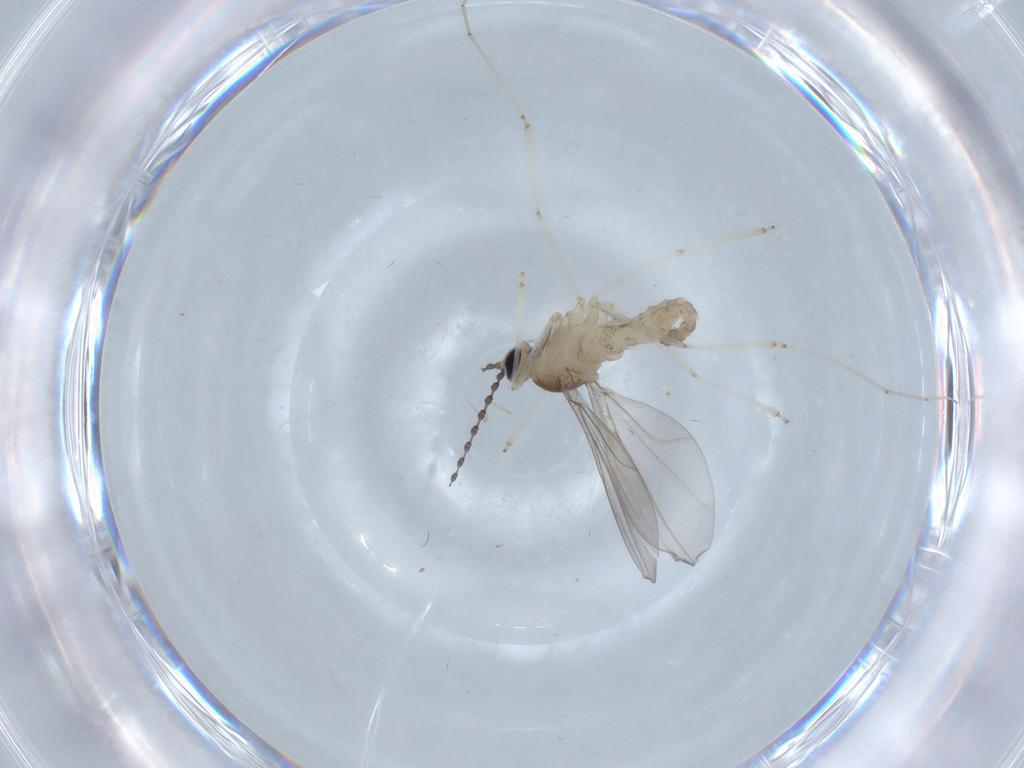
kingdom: Animalia
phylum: Arthropoda
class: Insecta
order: Diptera
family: Chironomidae
